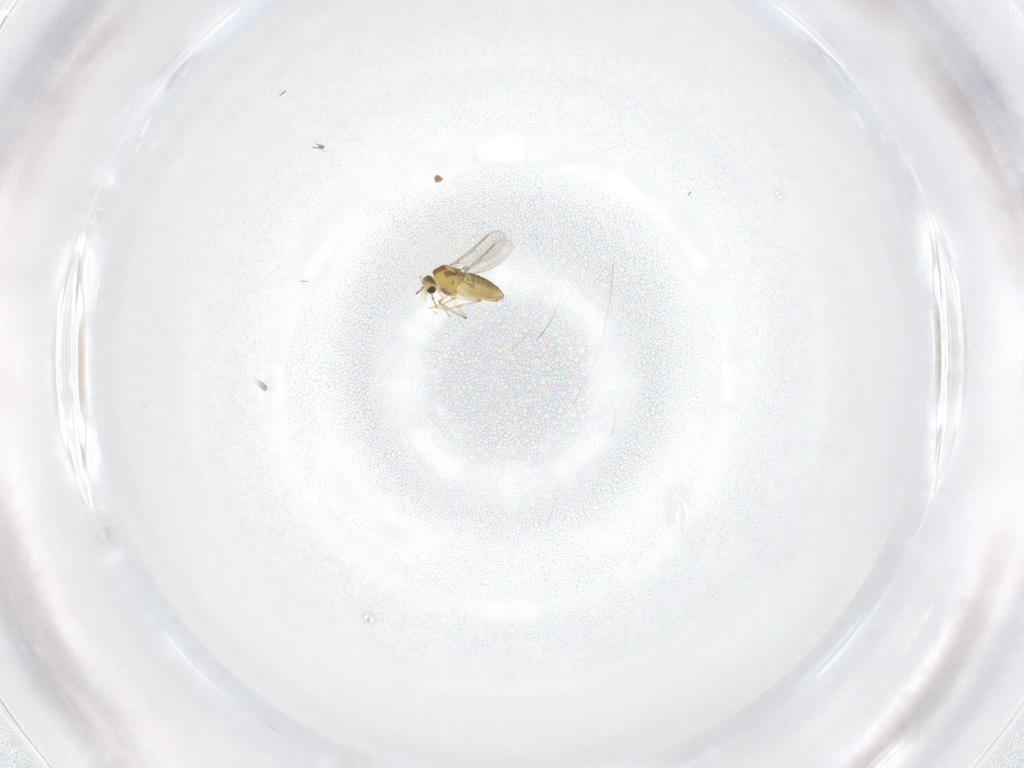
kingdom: Animalia
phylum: Arthropoda
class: Insecta
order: Diptera
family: Chironomidae
